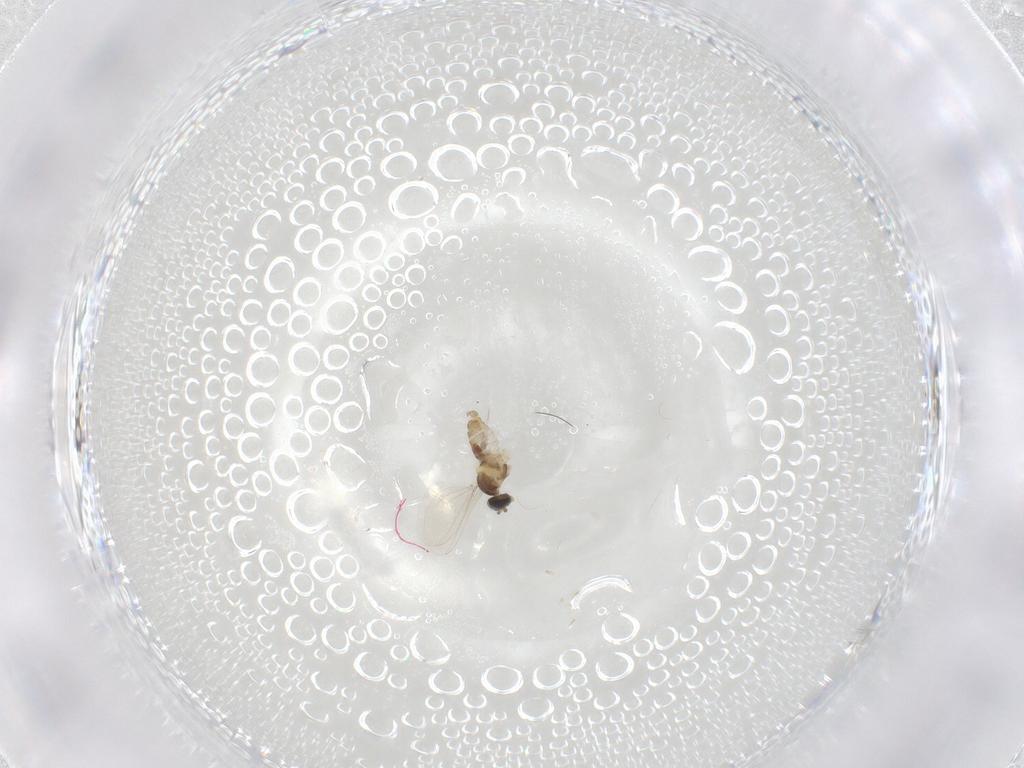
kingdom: Animalia
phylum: Arthropoda
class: Insecta
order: Diptera
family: Cecidomyiidae
